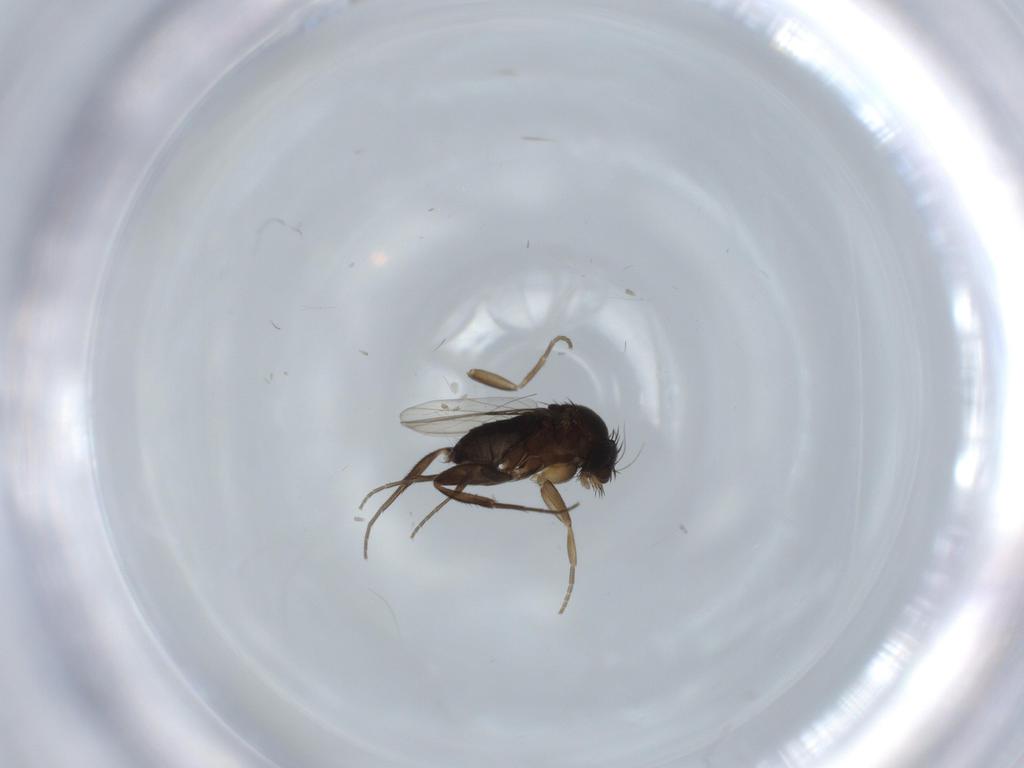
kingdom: Animalia
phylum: Arthropoda
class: Insecta
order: Diptera
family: Phoridae
